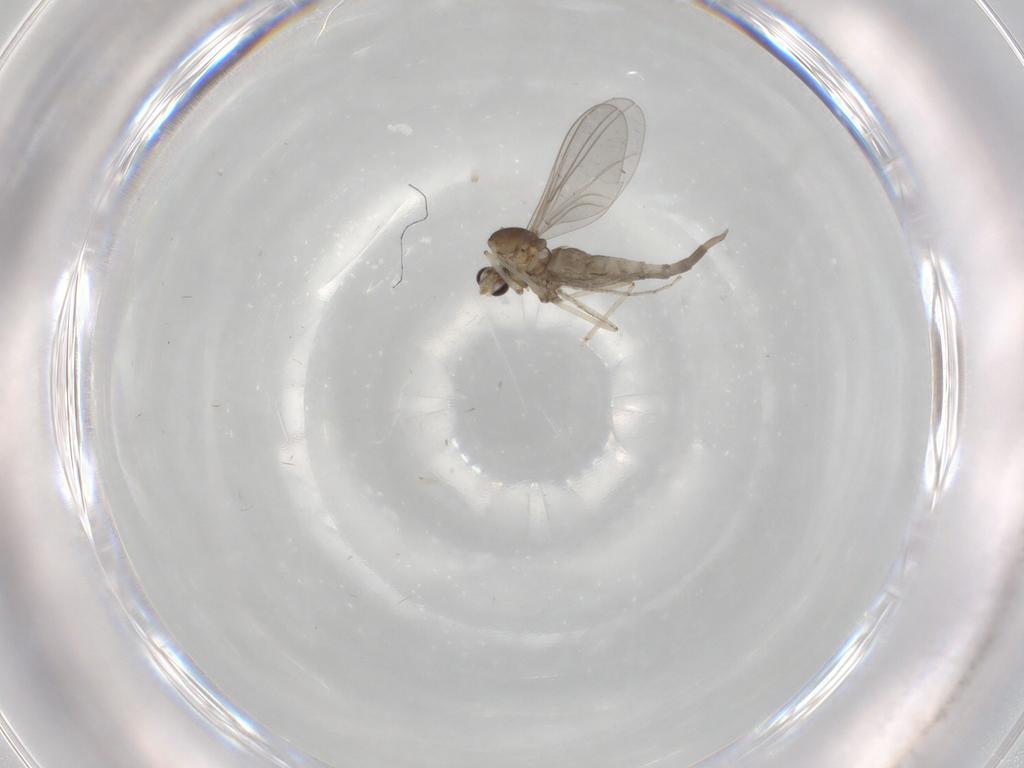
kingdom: Animalia
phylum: Arthropoda
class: Insecta
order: Diptera
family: Cecidomyiidae
